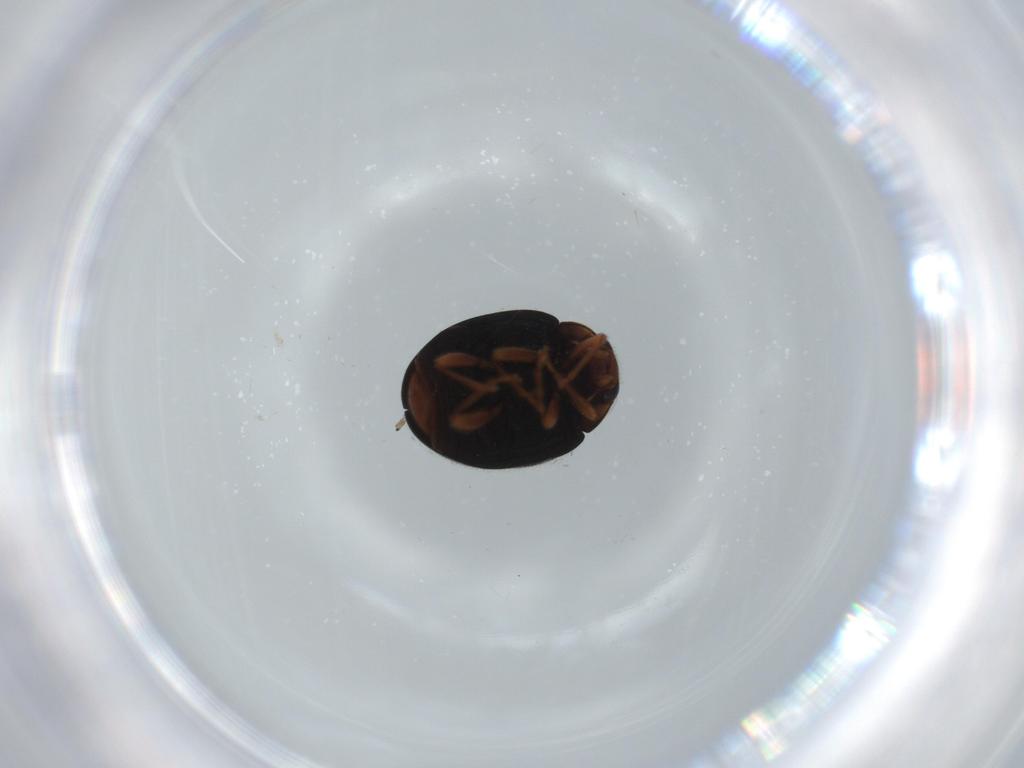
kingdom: Animalia
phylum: Arthropoda
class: Insecta
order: Coleoptera
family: Coccinellidae
